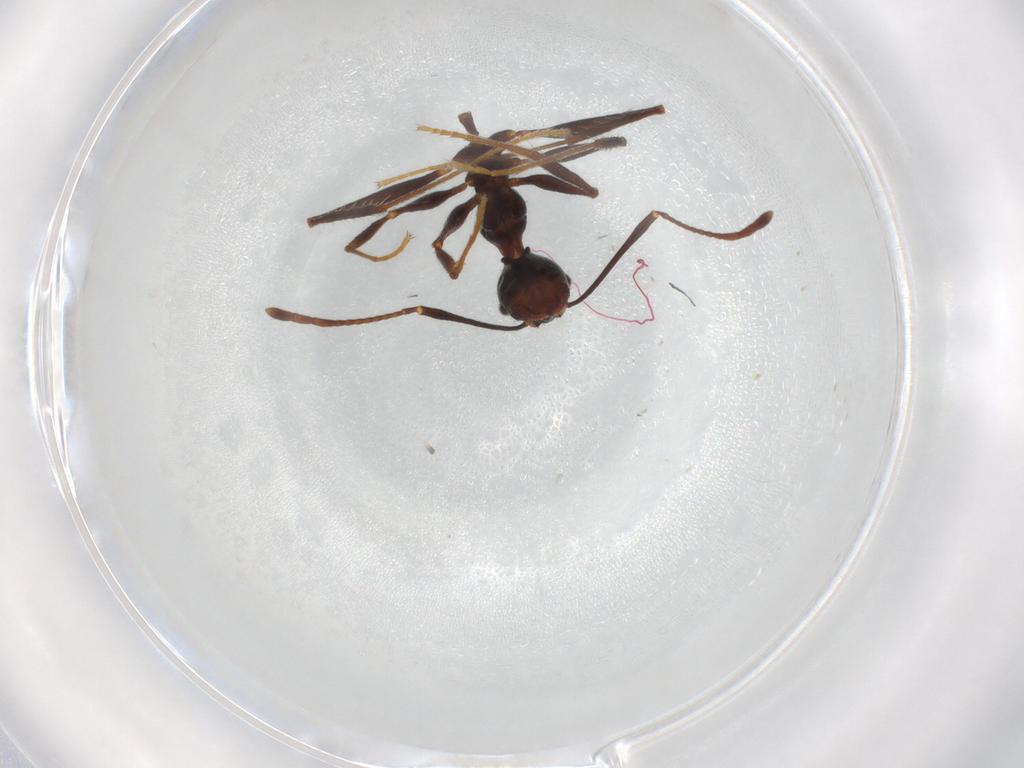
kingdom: Animalia
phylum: Arthropoda
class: Insecta
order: Hymenoptera
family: Formicidae
